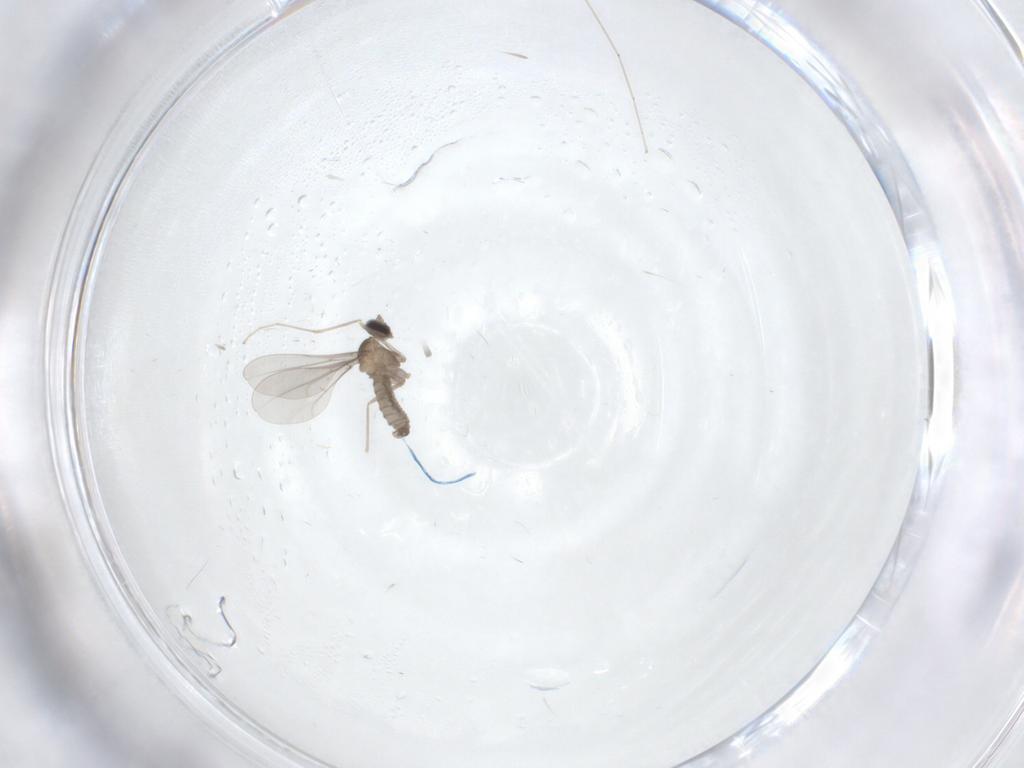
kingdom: Animalia
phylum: Arthropoda
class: Insecta
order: Diptera
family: Cecidomyiidae
